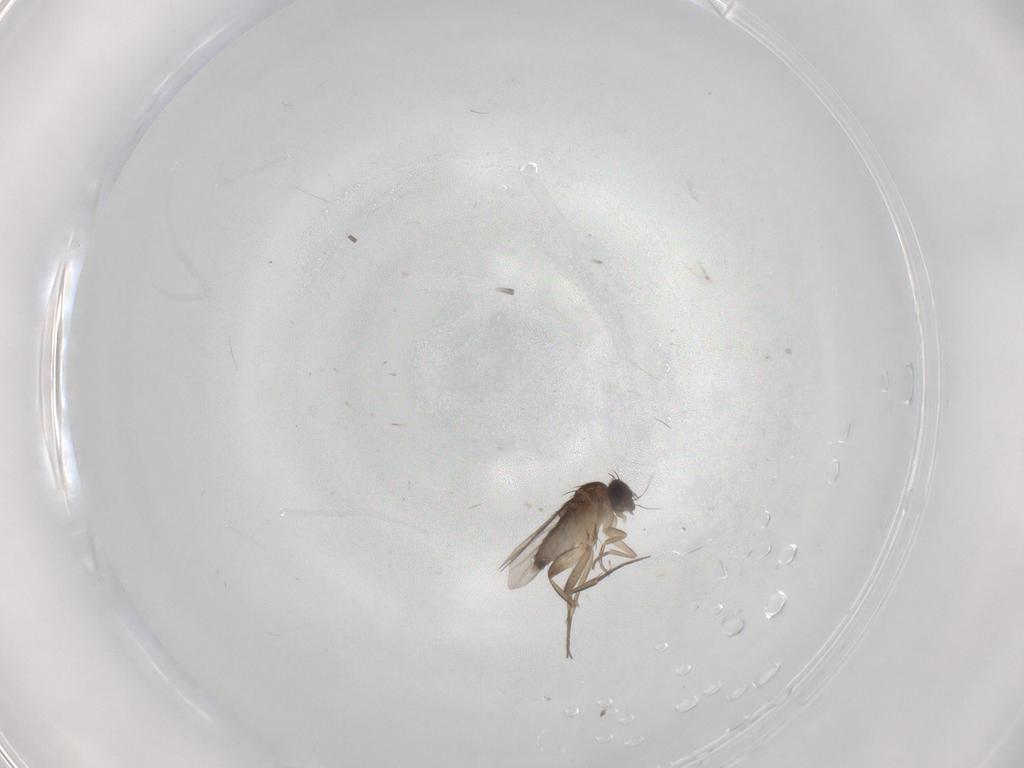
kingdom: Animalia
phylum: Arthropoda
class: Insecta
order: Diptera
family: Phoridae
